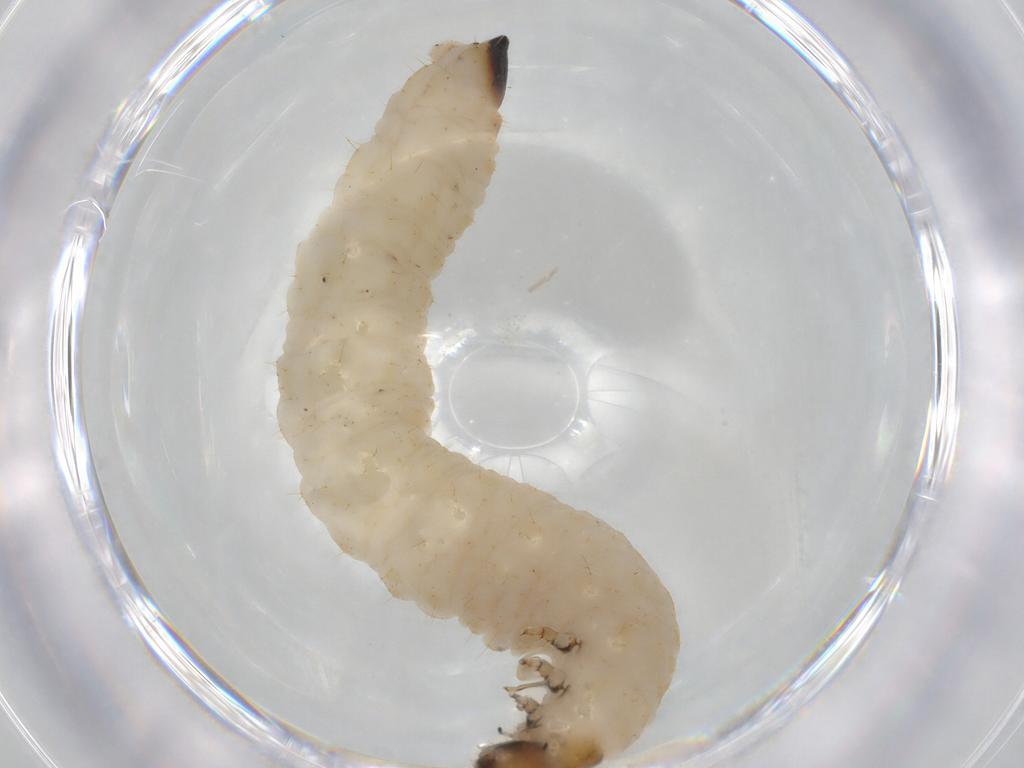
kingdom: Animalia
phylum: Arthropoda
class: Insecta
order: Coleoptera
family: Chrysomelidae
